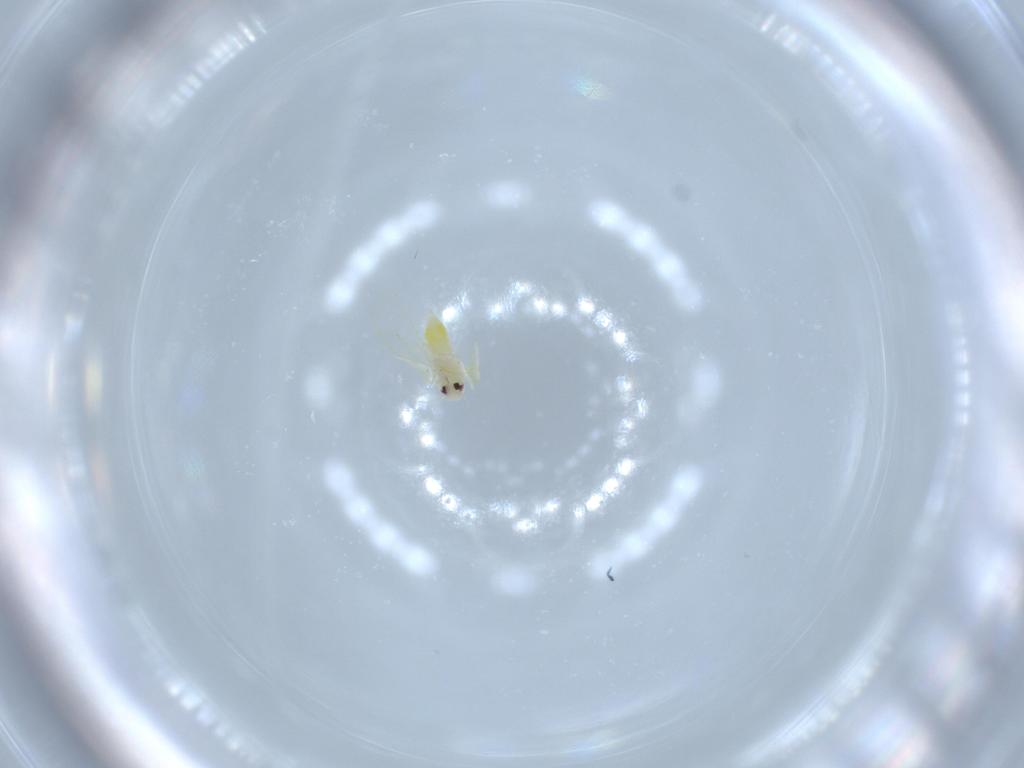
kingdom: Animalia
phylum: Arthropoda
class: Insecta
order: Hemiptera
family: Aleyrodidae
